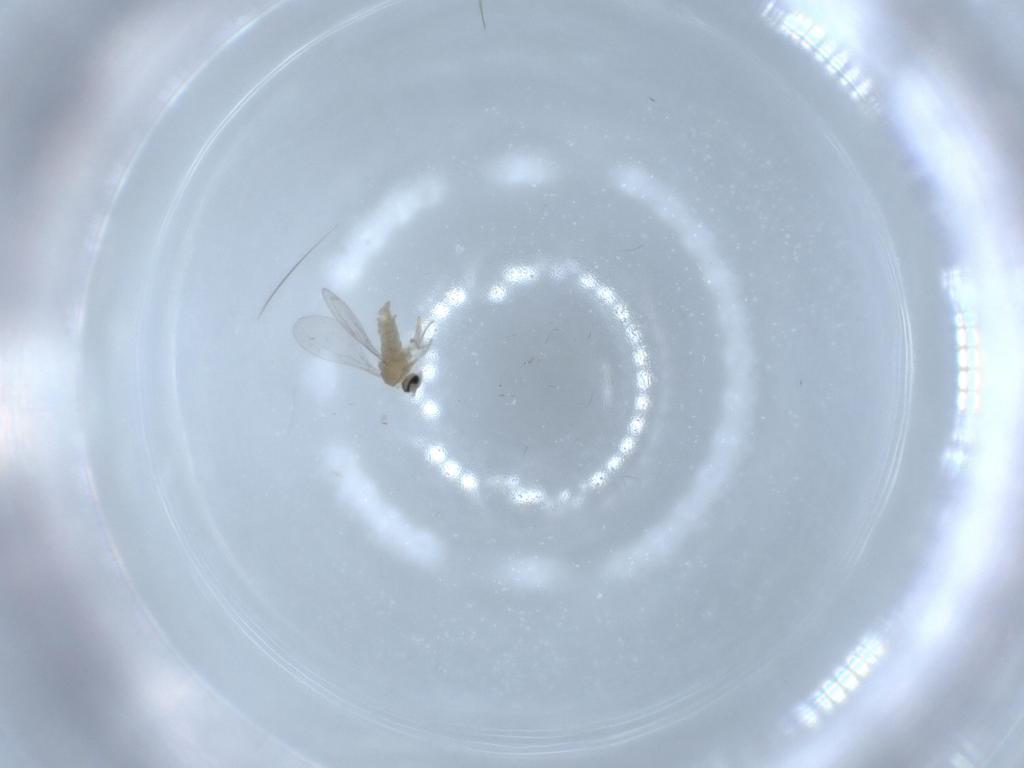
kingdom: Animalia
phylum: Arthropoda
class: Insecta
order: Diptera
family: Cecidomyiidae
